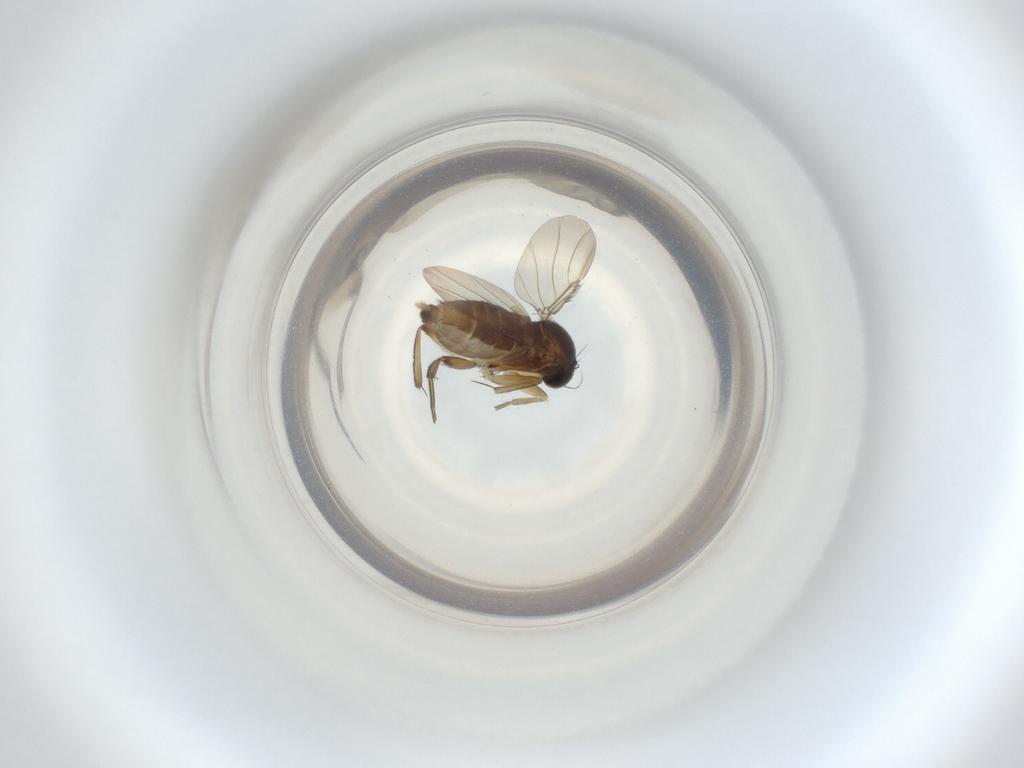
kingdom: Animalia
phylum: Arthropoda
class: Insecta
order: Diptera
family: Phoridae
